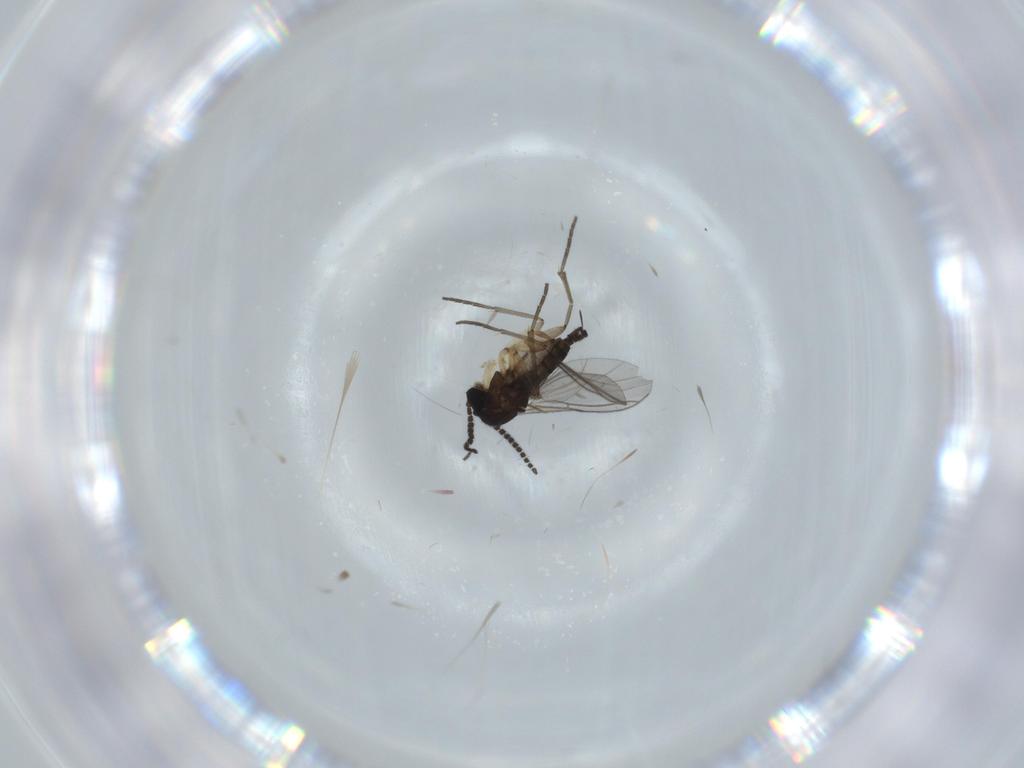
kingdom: Animalia
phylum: Arthropoda
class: Insecta
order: Diptera
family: Sciaridae
